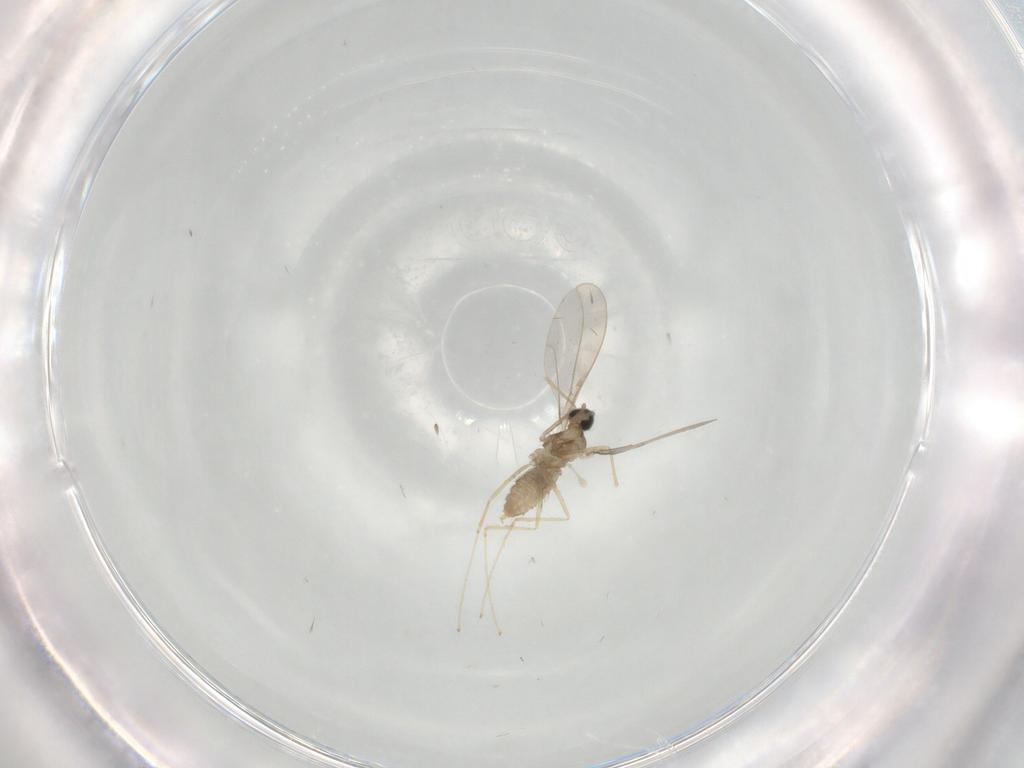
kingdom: Animalia
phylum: Arthropoda
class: Insecta
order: Diptera
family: Cecidomyiidae
